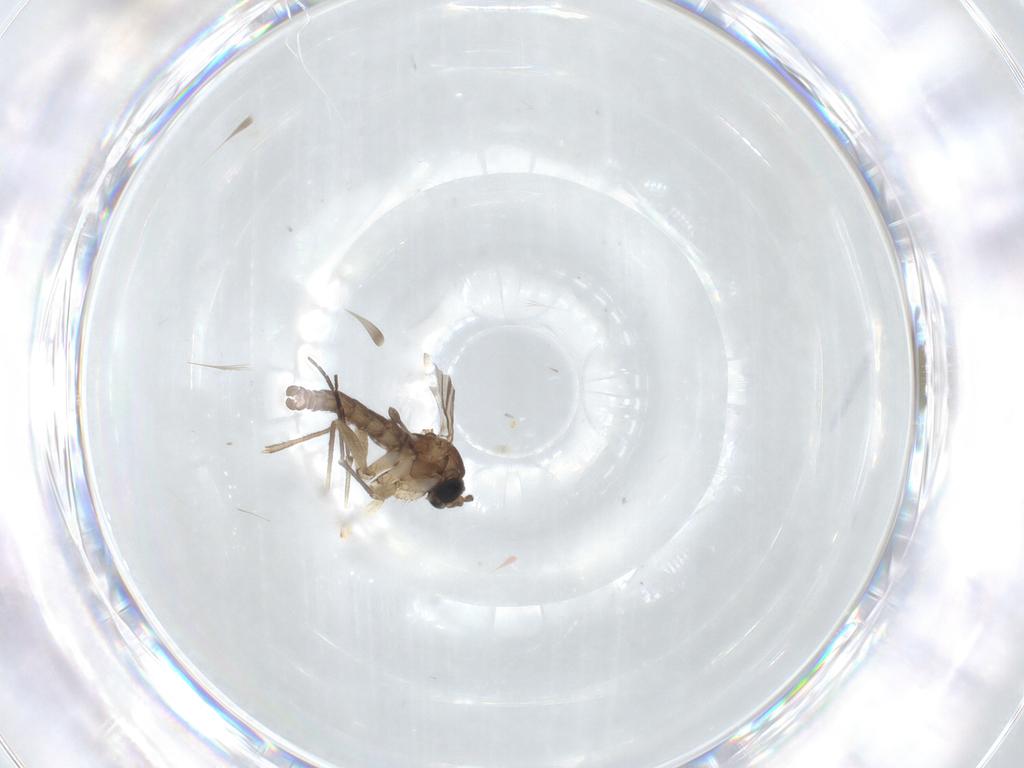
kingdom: Animalia
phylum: Arthropoda
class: Insecta
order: Diptera
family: Sciaridae
